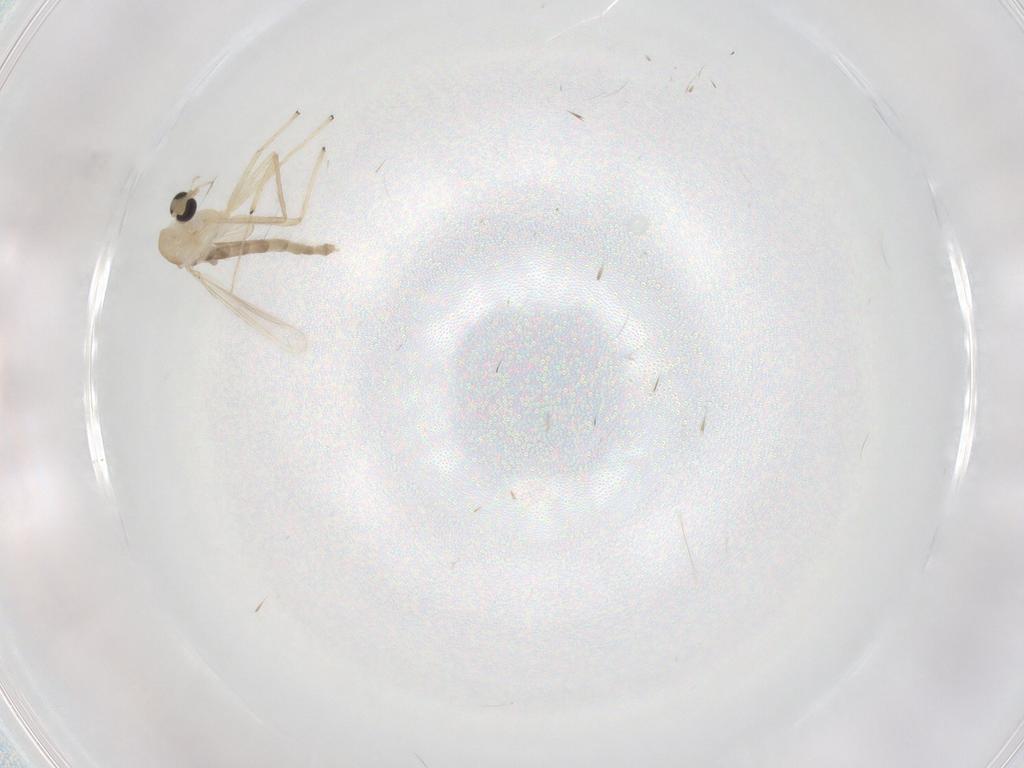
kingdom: Animalia
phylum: Arthropoda
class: Insecta
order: Diptera
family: Chironomidae
